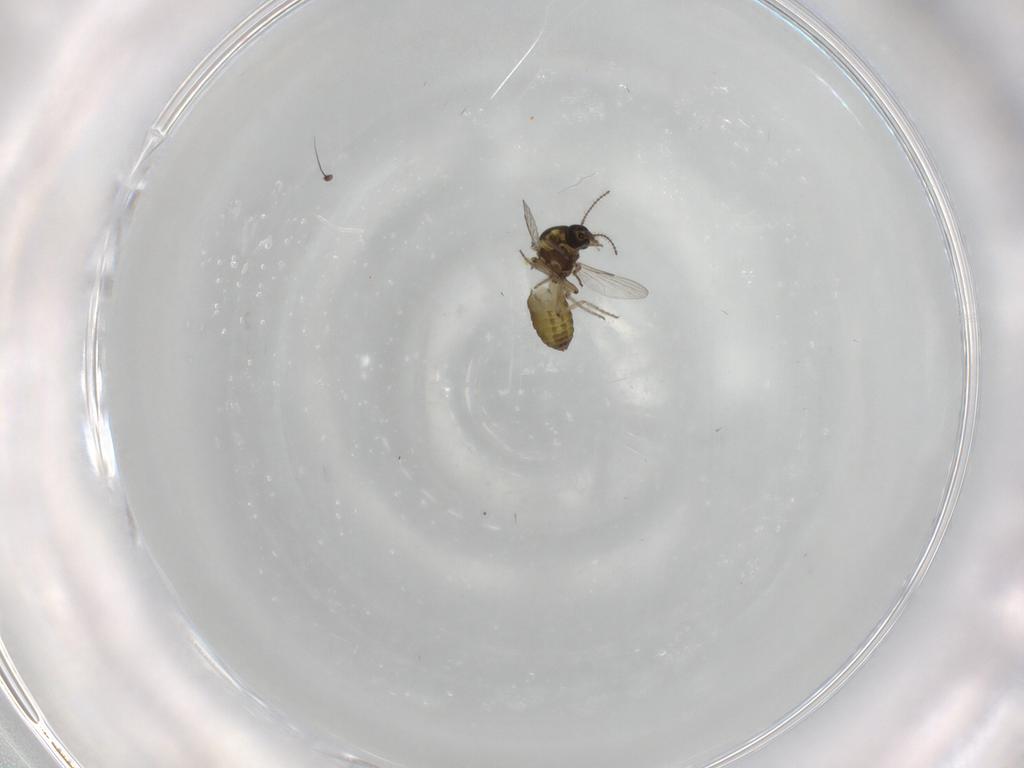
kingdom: Animalia
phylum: Arthropoda
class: Insecta
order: Diptera
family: Ceratopogonidae
